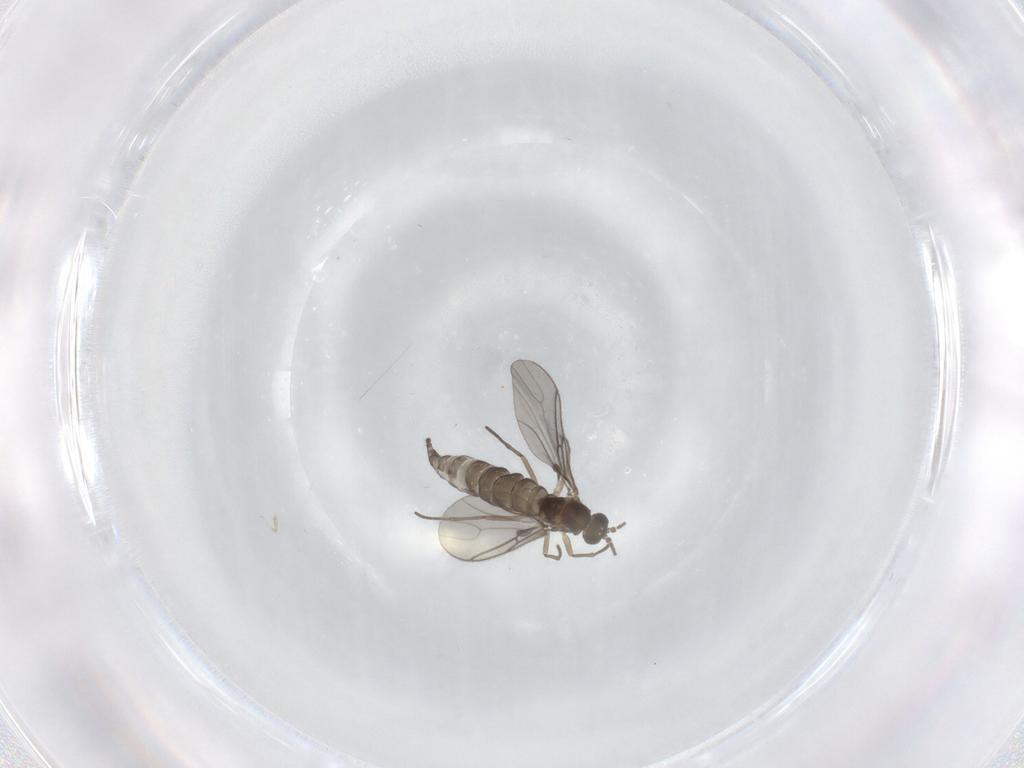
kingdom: Animalia
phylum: Arthropoda
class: Insecta
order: Diptera
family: Sciaridae
